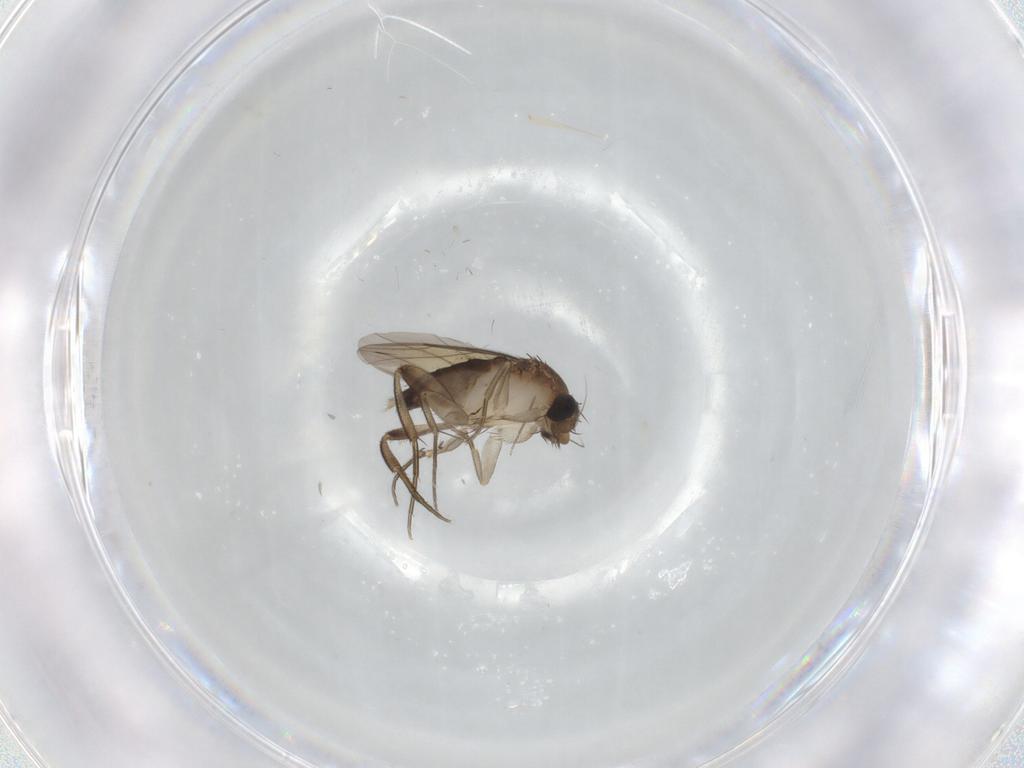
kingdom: Animalia
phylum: Arthropoda
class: Insecta
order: Diptera
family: Phoridae
